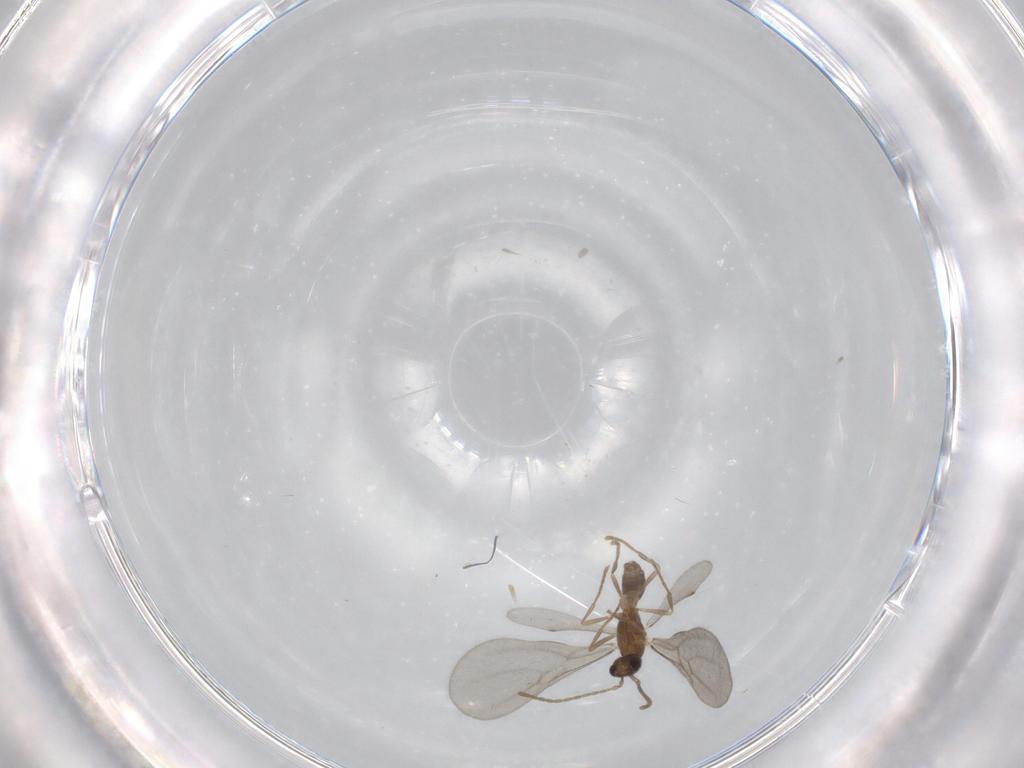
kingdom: Animalia
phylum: Arthropoda
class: Insecta
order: Hymenoptera
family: Formicidae
